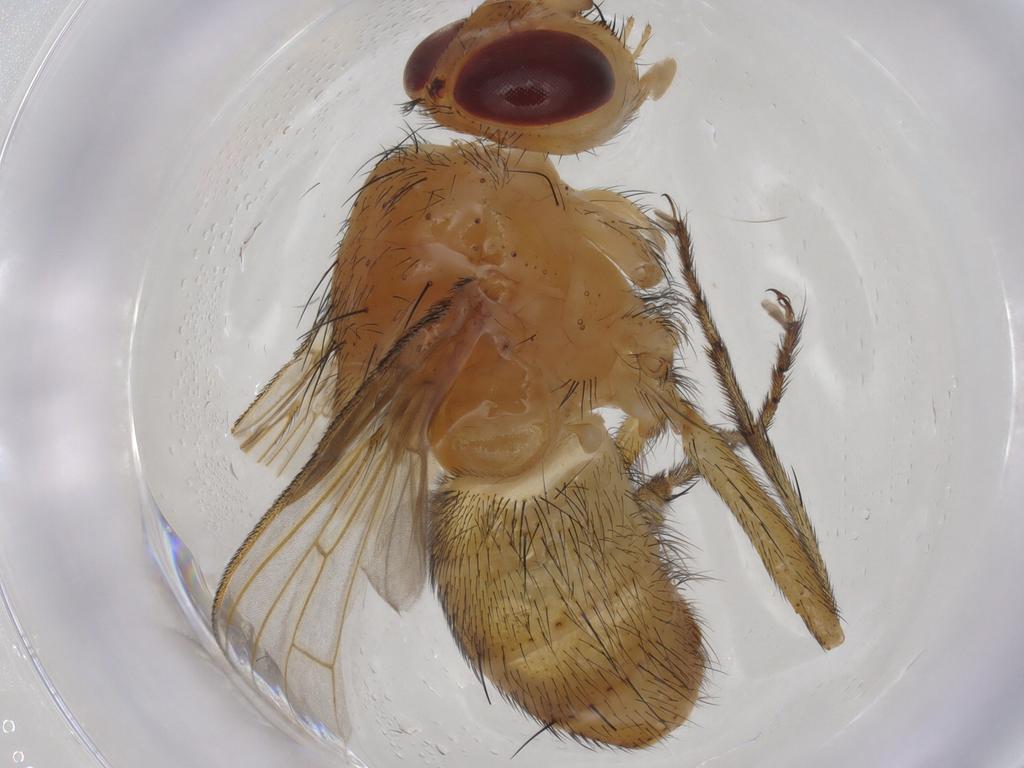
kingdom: Animalia
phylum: Arthropoda
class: Insecta
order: Diptera
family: Tachinidae
